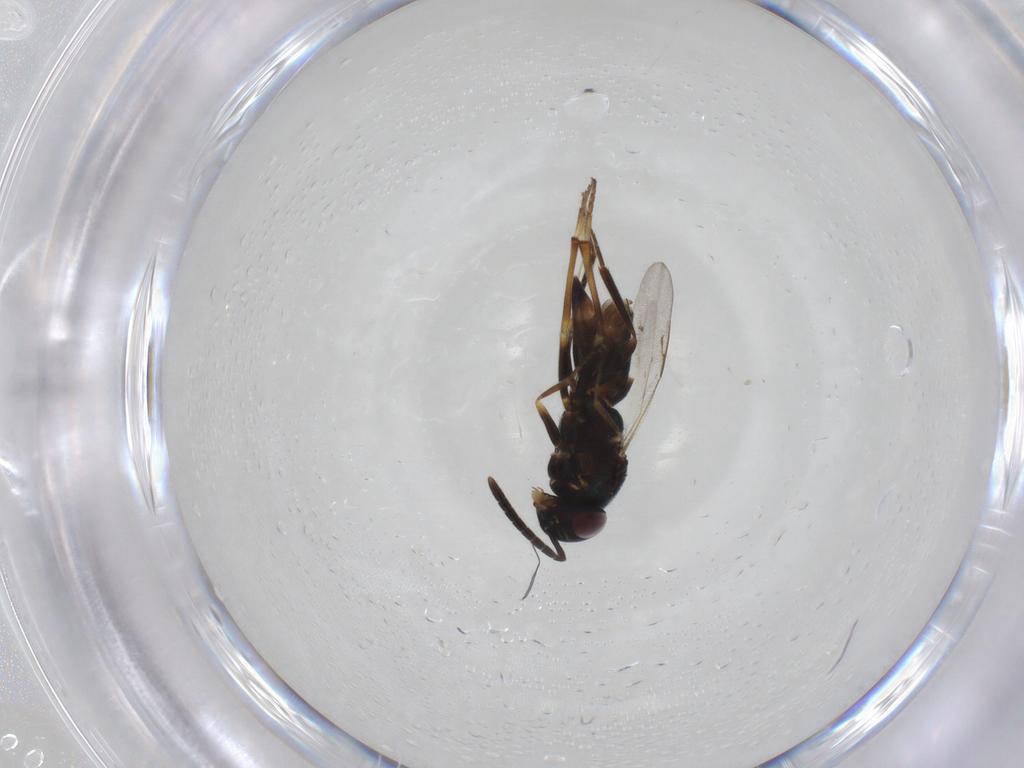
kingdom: Animalia
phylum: Arthropoda
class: Insecta
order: Hymenoptera
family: Encyrtidae
